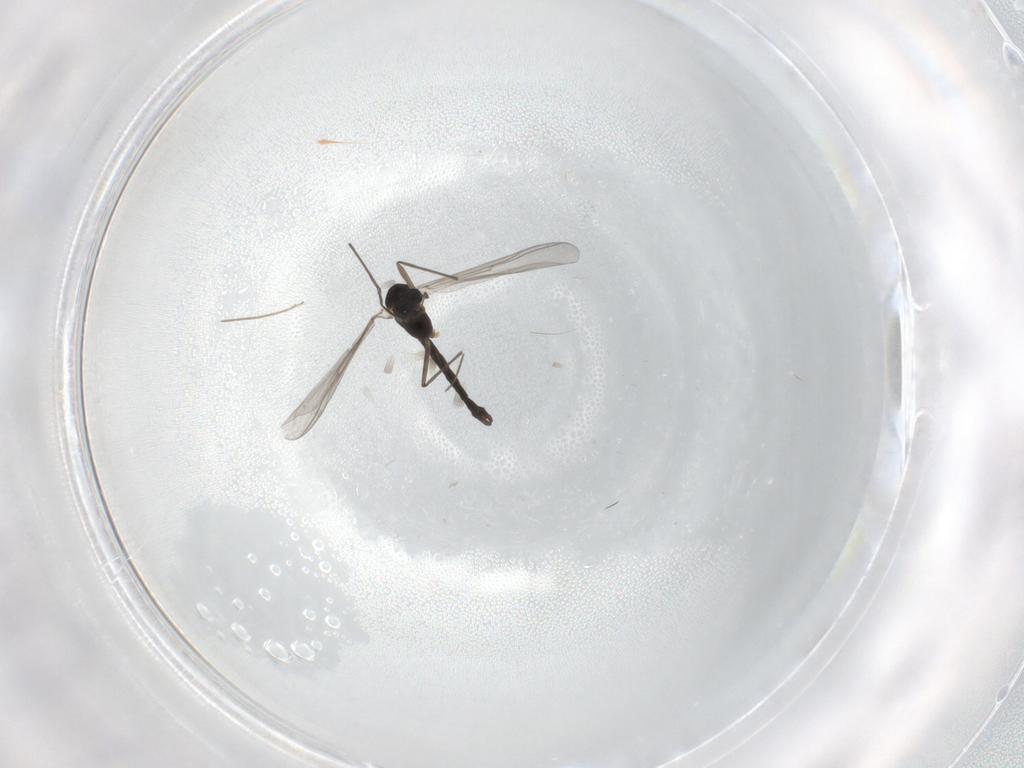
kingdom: Animalia
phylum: Arthropoda
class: Insecta
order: Diptera
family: Chironomidae
